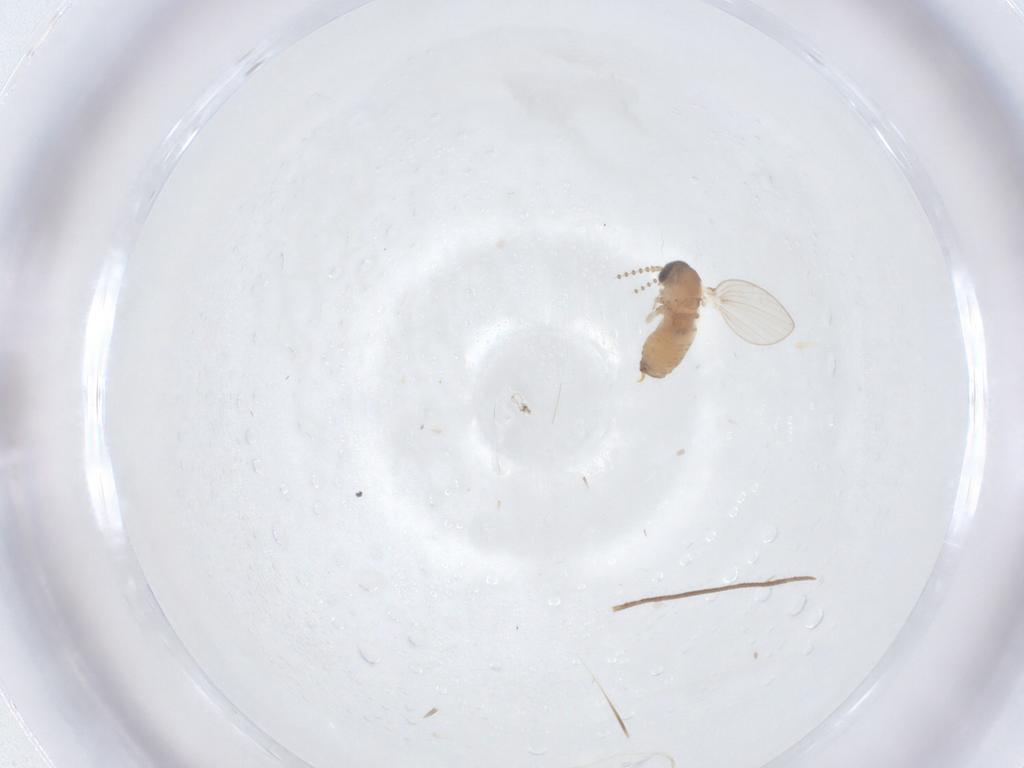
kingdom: Animalia
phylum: Arthropoda
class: Insecta
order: Diptera
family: Psychodidae
